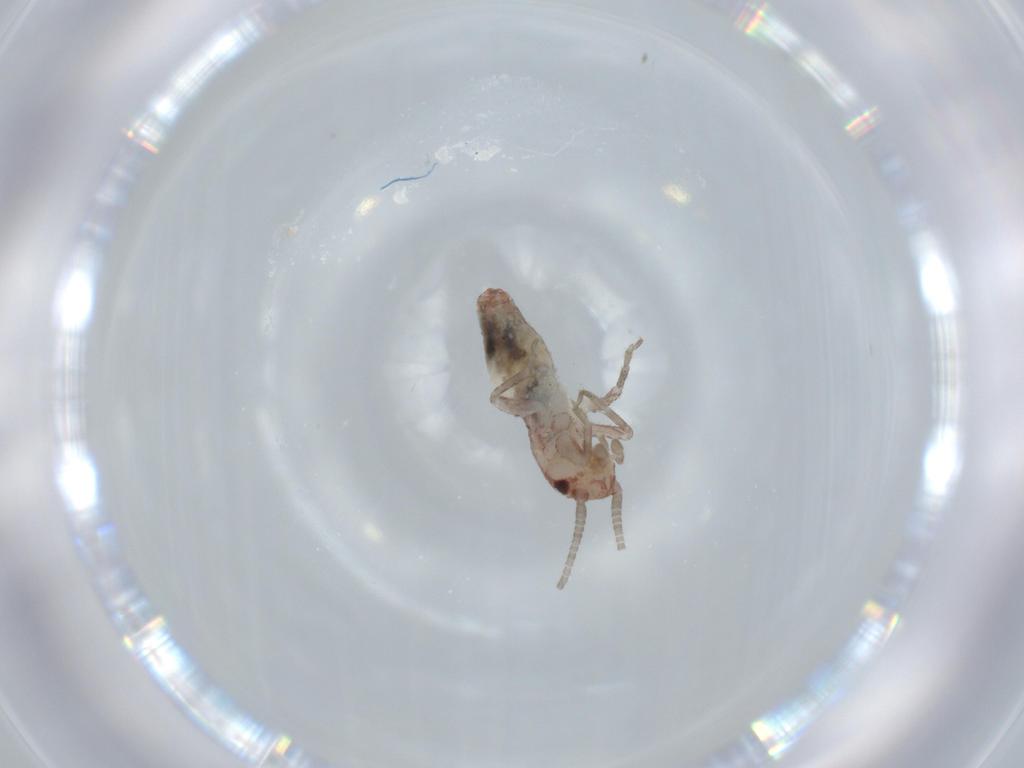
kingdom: Animalia
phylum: Arthropoda
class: Insecta
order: Orthoptera
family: Mogoplistidae
